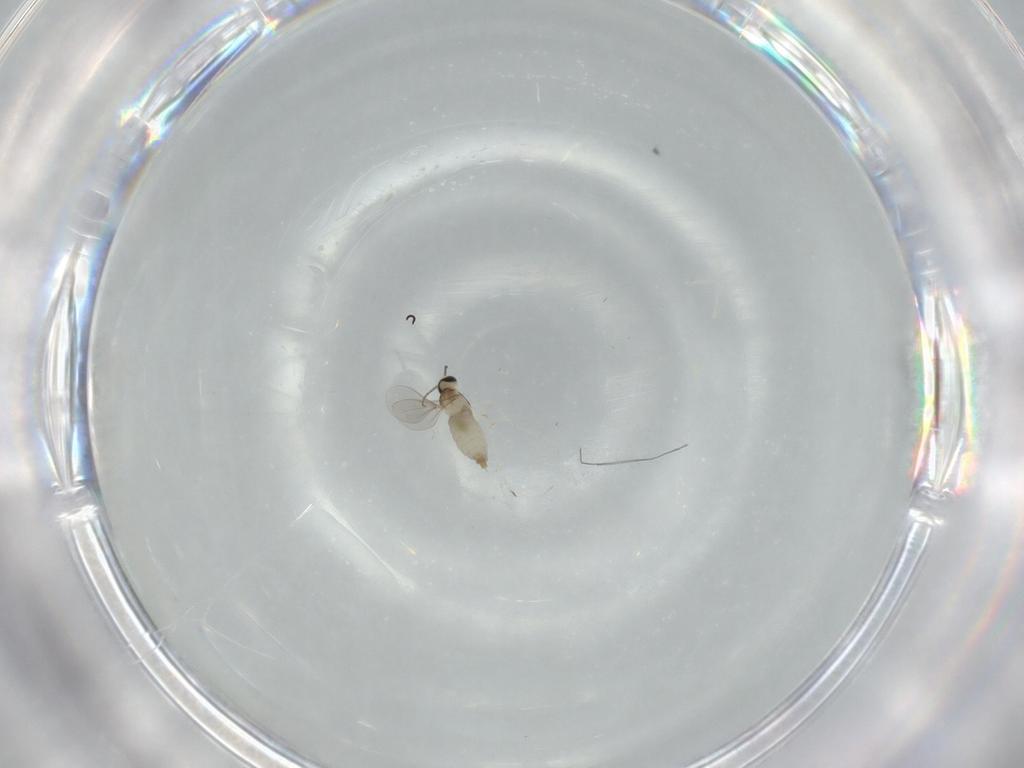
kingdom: Animalia
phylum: Arthropoda
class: Insecta
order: Diptera
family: Cecidomyiidae
